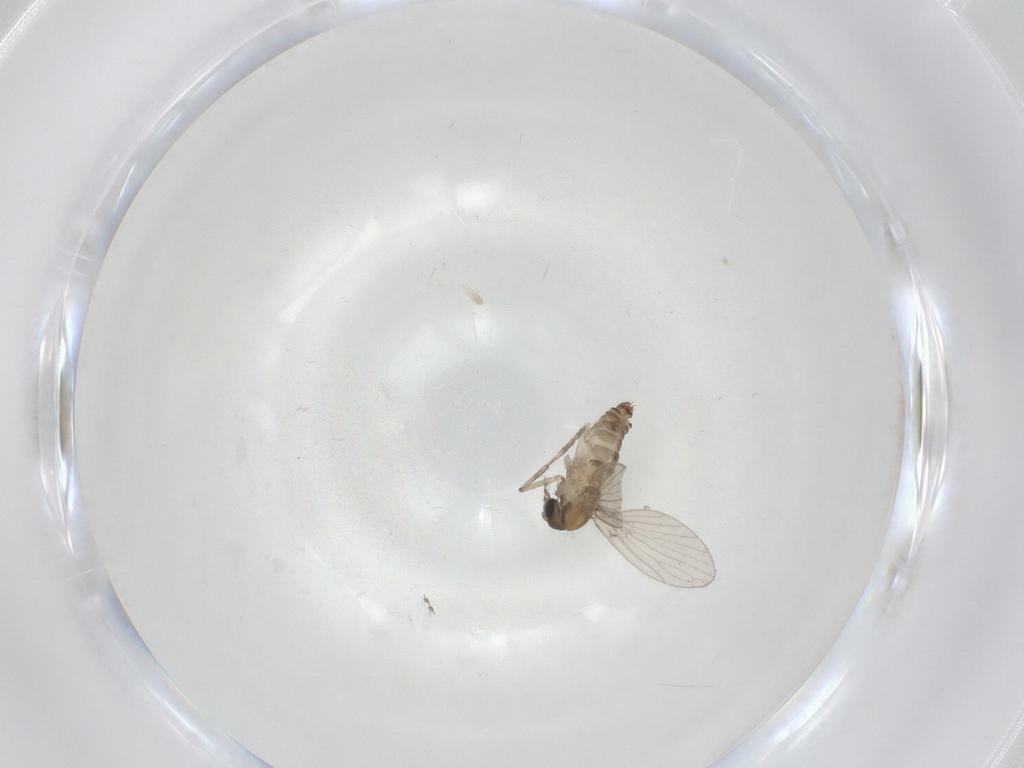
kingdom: Animalia
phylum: Arthropoda
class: Insecta
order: Diptera
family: Psychodidae
